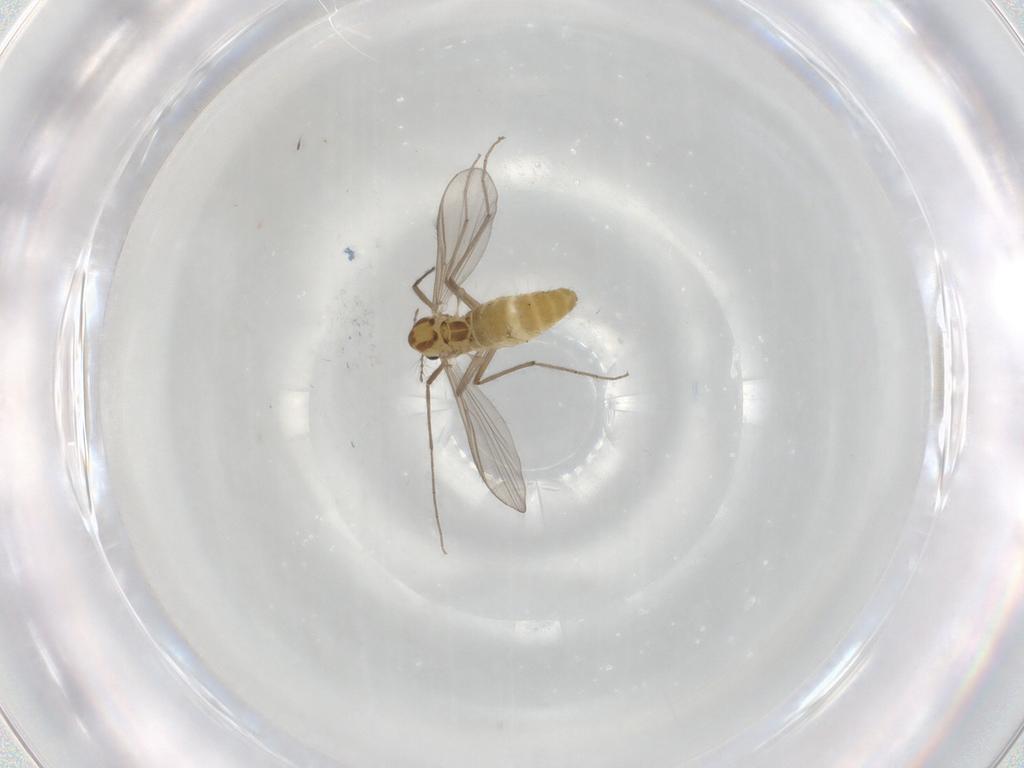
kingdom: Animalia
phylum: Arthropoda
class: Insecta
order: Diptera
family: Chironomidae
